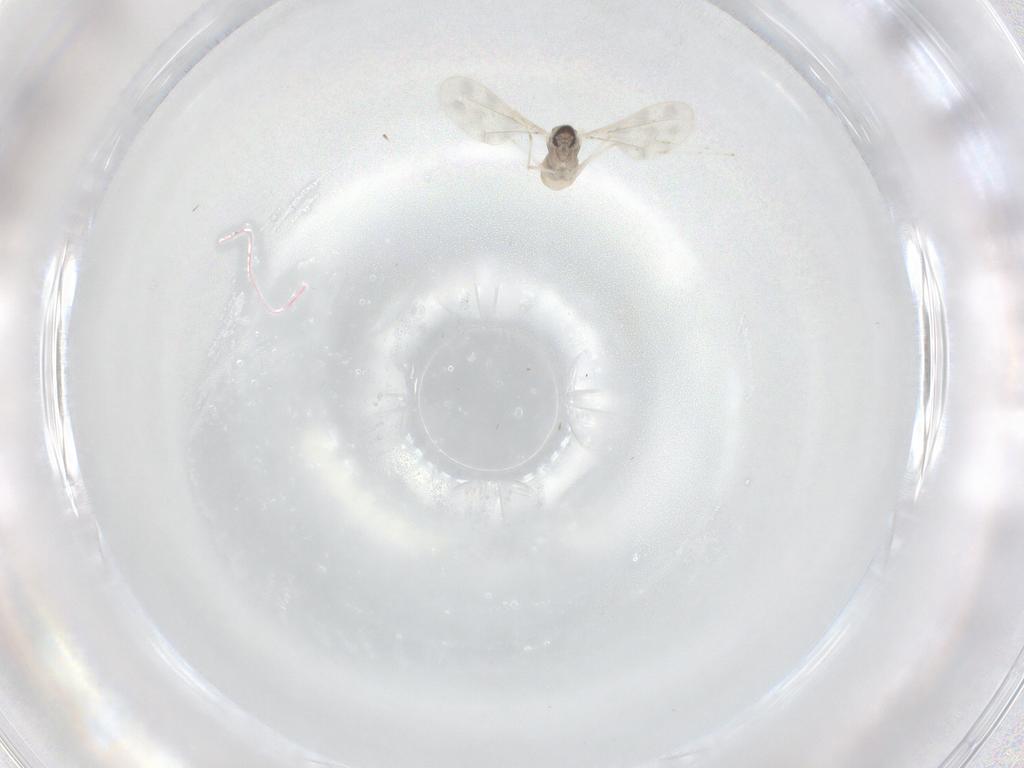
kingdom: Animalia
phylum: Arthropoda
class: Insecta
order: Diptera
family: Cecidomyiidae
